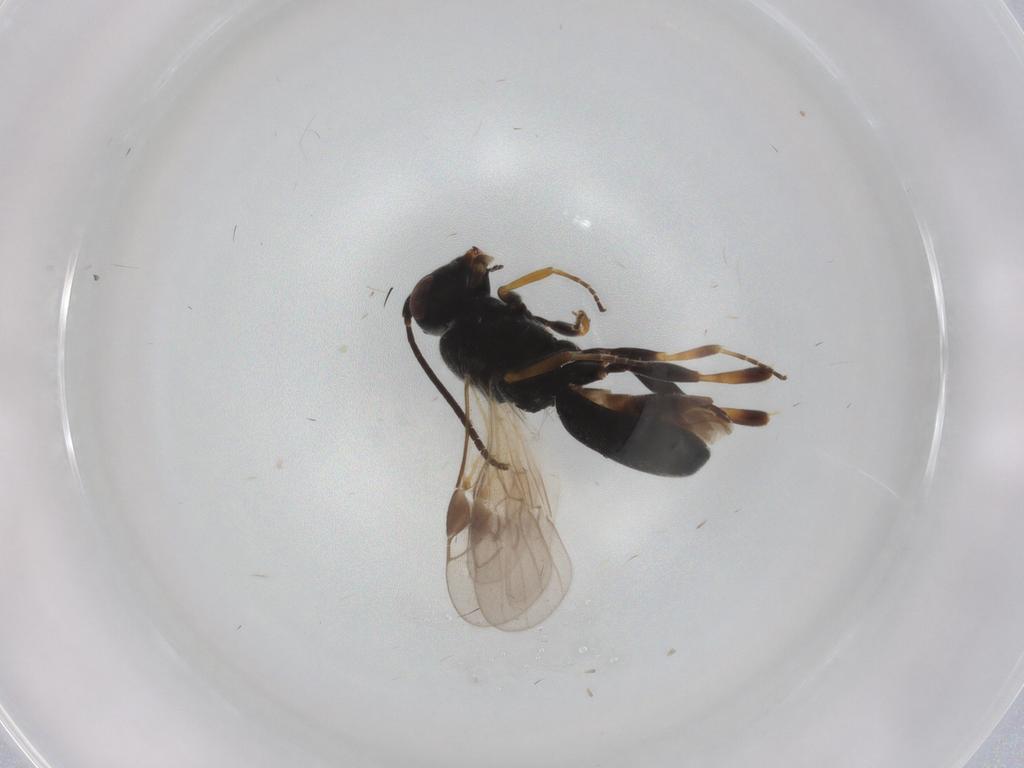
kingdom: Animalia
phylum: Arthropoda
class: Insecta
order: Hymenoptera
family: Braconidae
